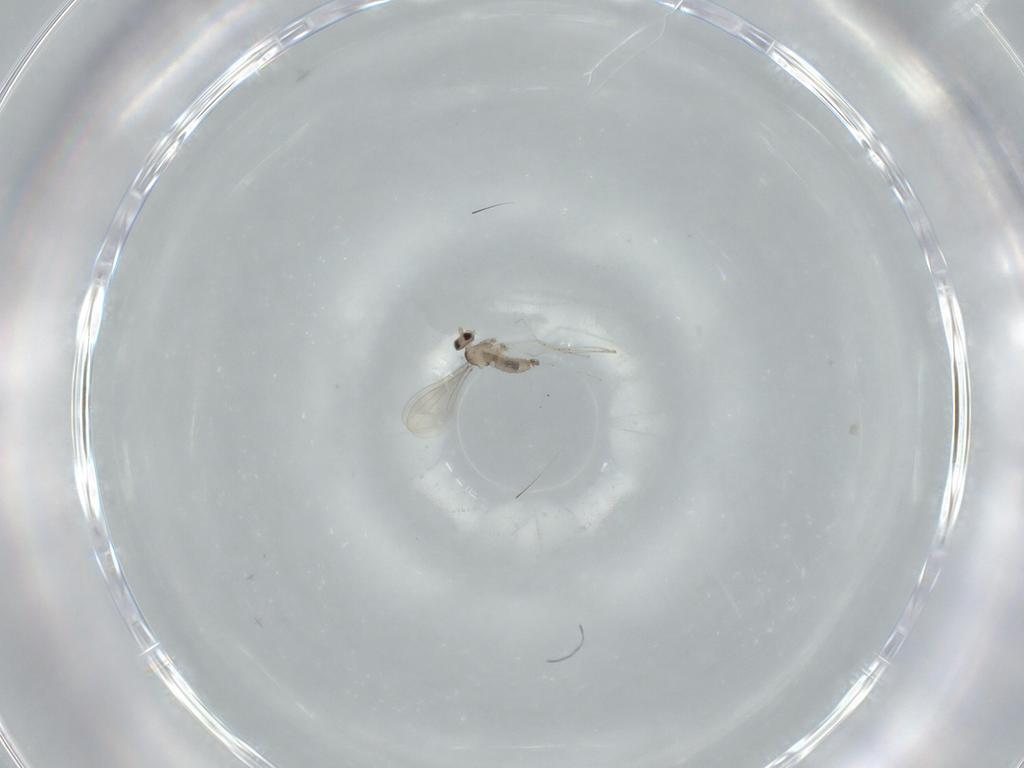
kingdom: Animalia
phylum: Arthropoda
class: Insecta
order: Diptera
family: Cecidomyiidae
